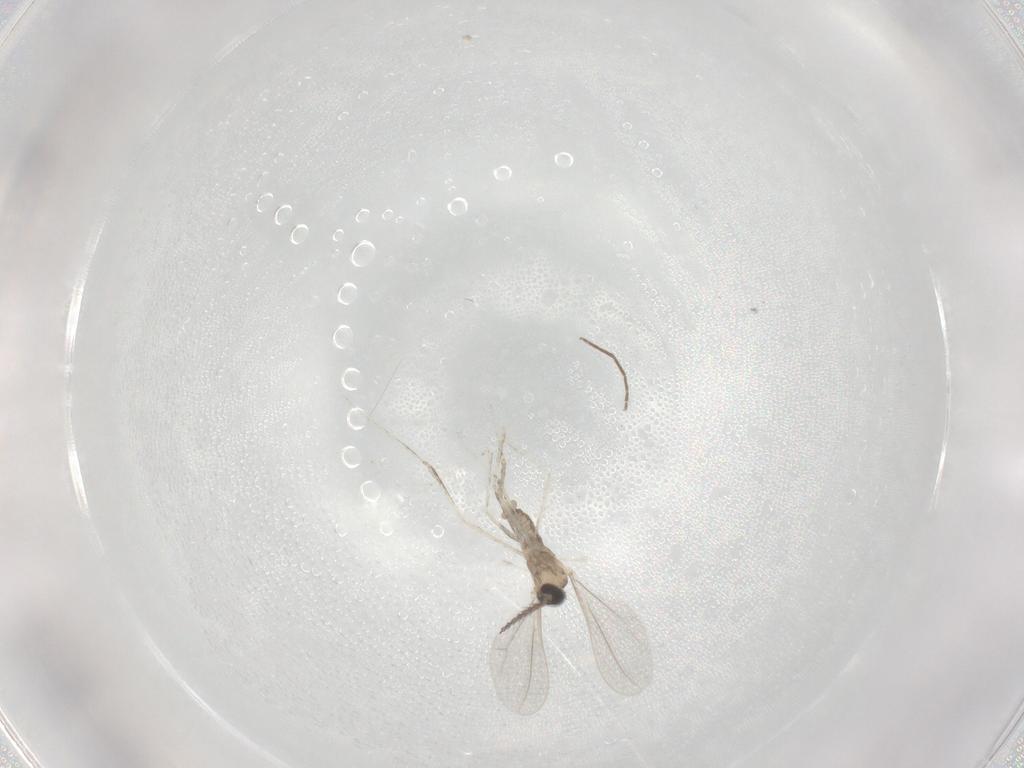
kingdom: Animalia
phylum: Arthropoda
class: Insecta
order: Diptera
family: Cecidomyiidae
